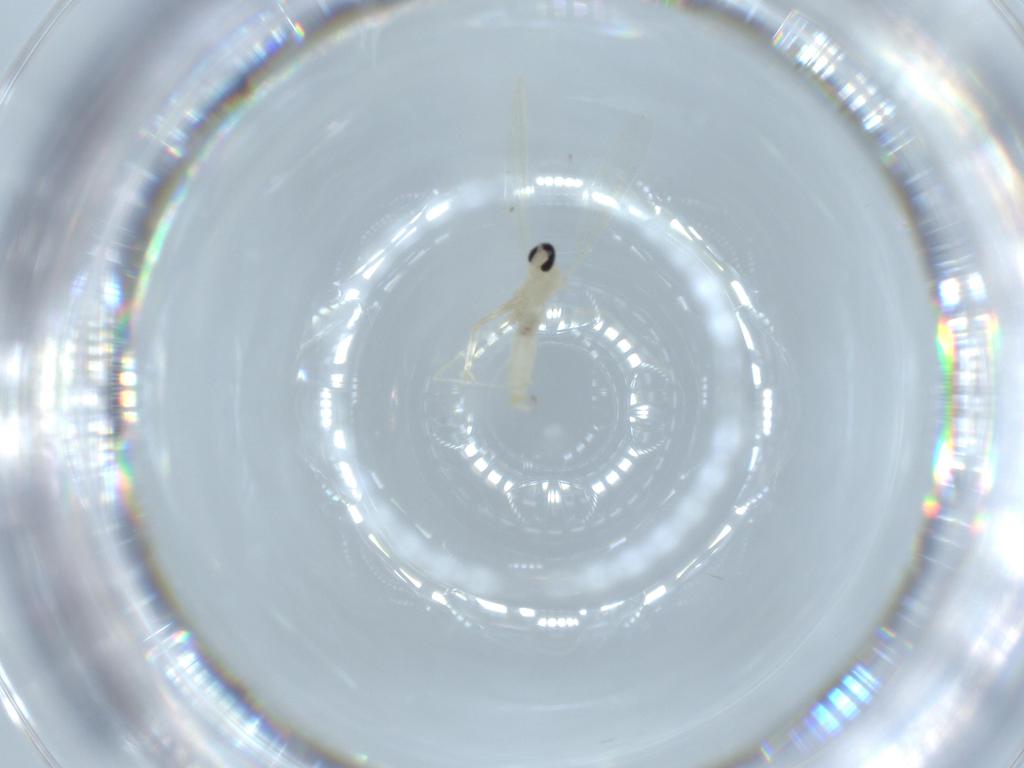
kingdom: Animalia
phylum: Arthropoda
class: Insecta
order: Diptera
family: Cecidomyiidae
